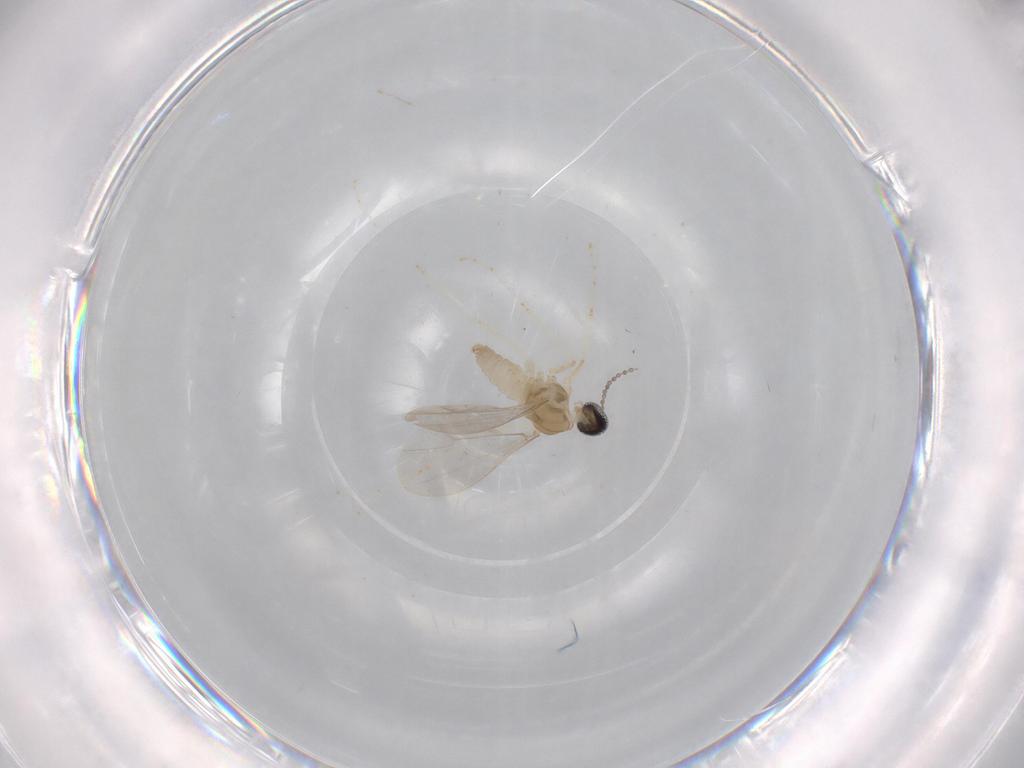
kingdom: Animalia
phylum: Arthropoda
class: Insecta
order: Diptera
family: Cecidomyiidae
